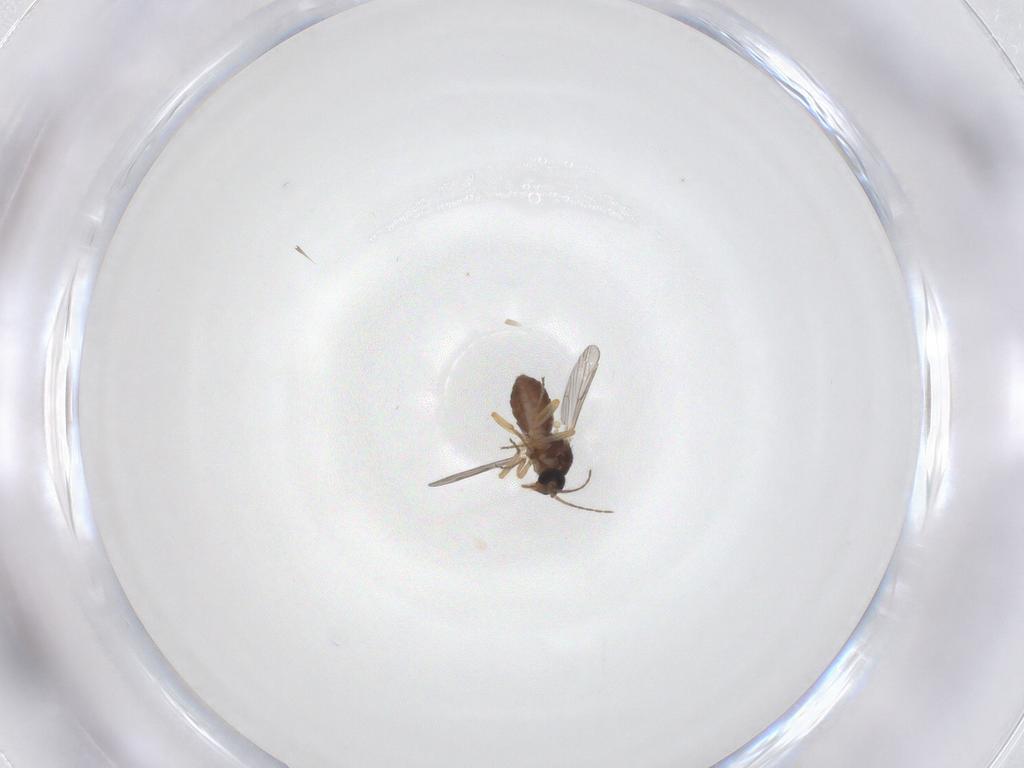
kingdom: Animalia
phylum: Arthropoda
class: Insecta
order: Diptera
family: Ceratopogonidae
